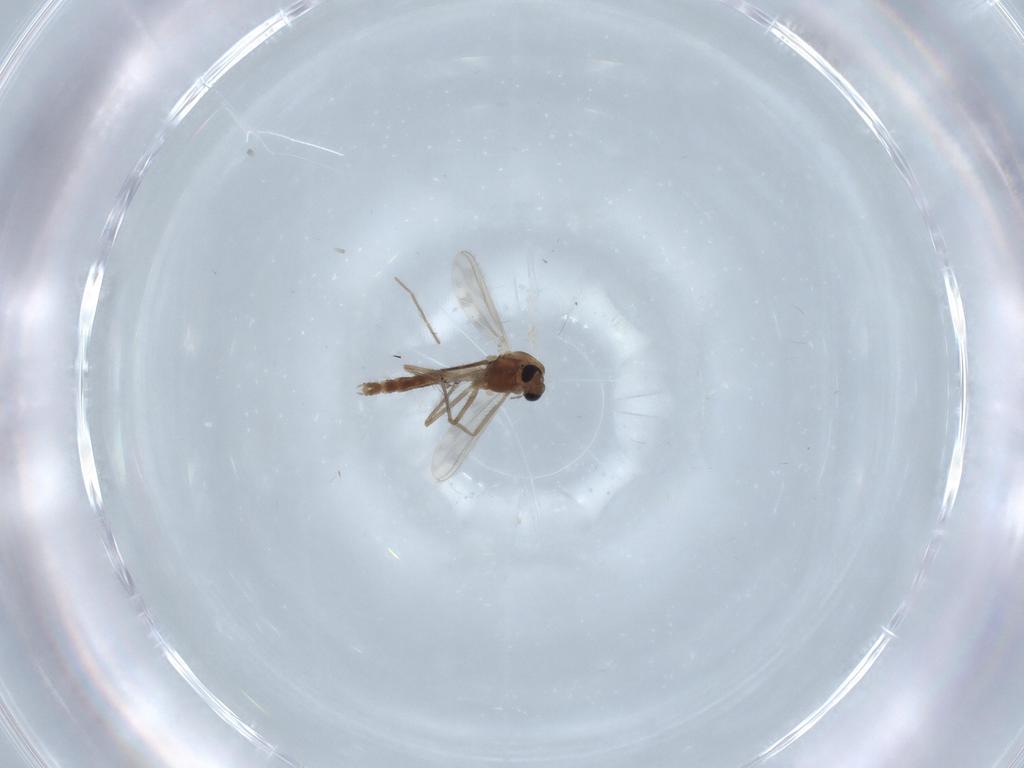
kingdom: Animalia
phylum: Arthropoda
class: Insecta
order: Diptera
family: Chironomidae
